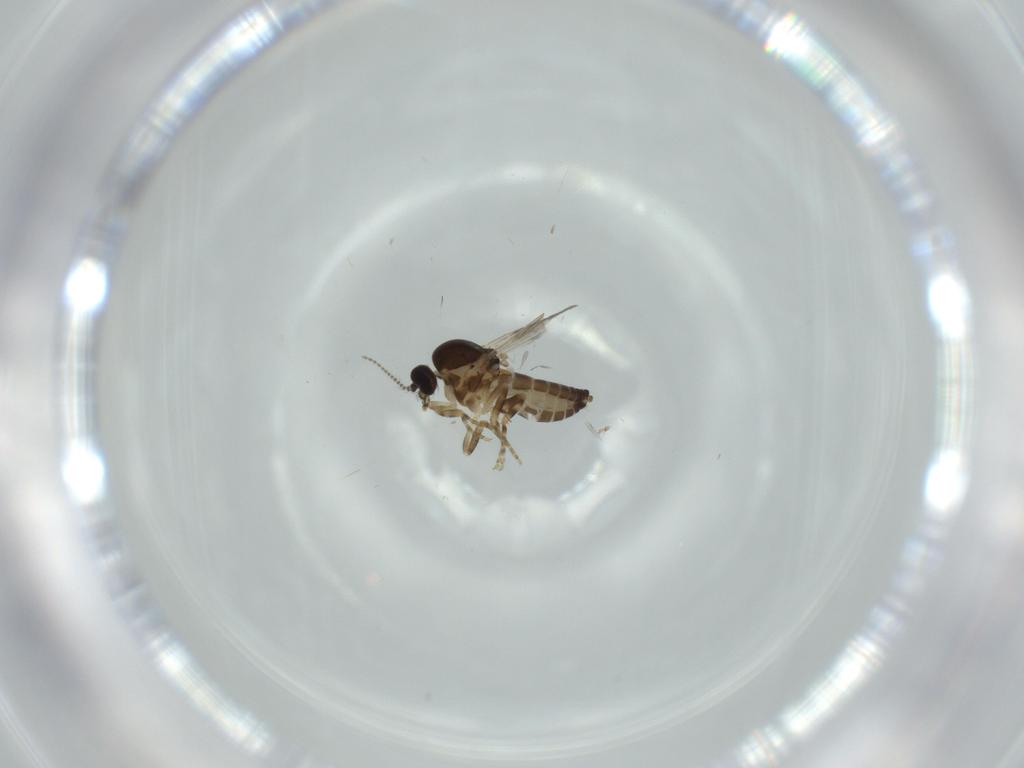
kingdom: Animalia
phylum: Arthropoda
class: Insecta
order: Diptera
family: Ceratopogonidae
